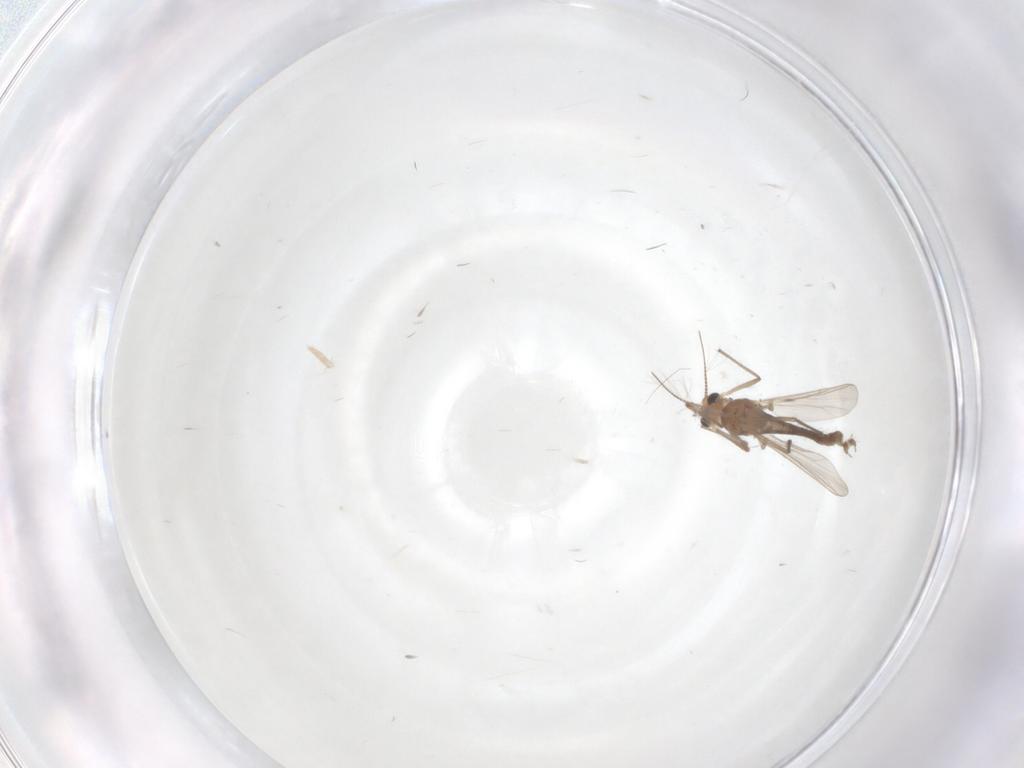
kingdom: Animalia
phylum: Arthropoda
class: Insecta
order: Diptera
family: Chironomidae
